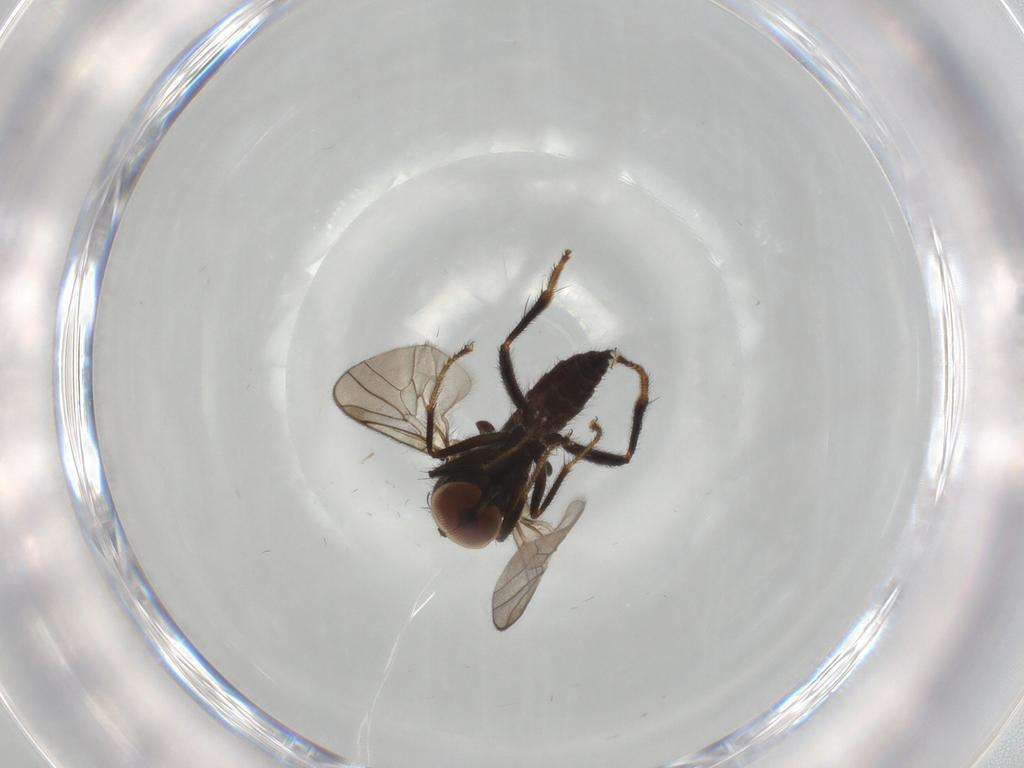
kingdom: Animalia
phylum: Arthropoda
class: Insecta
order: Diptera
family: Hybotidae
